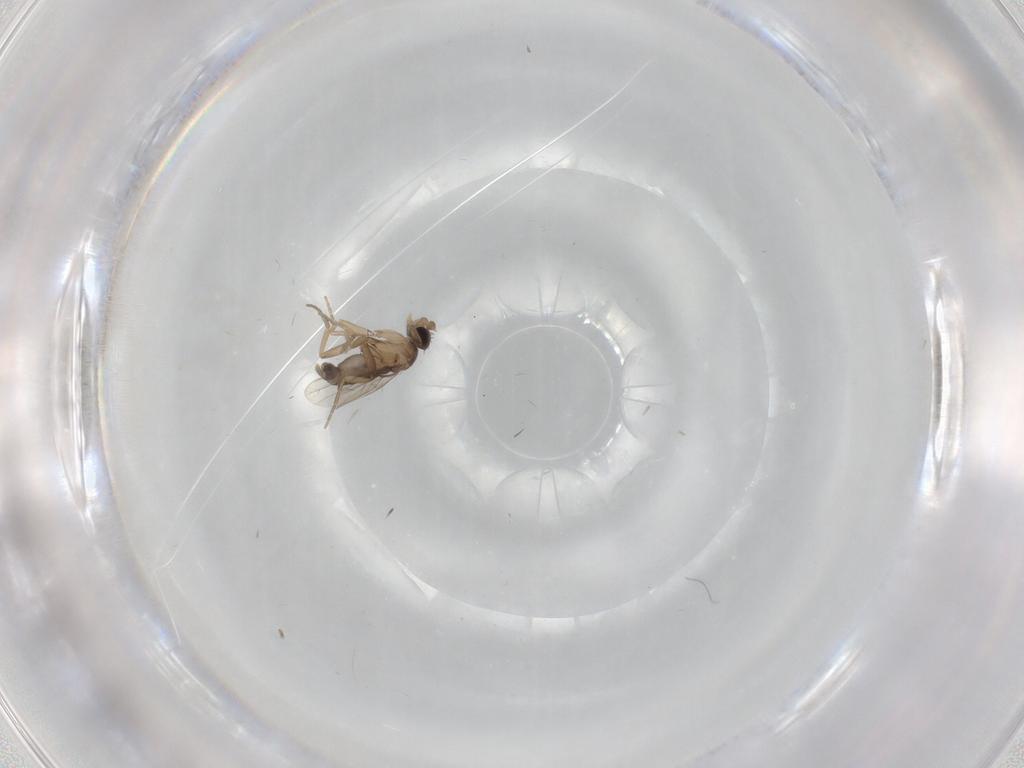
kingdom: Animalia
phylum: Arthropoda
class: Insecta
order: Diptera
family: Phoridae
